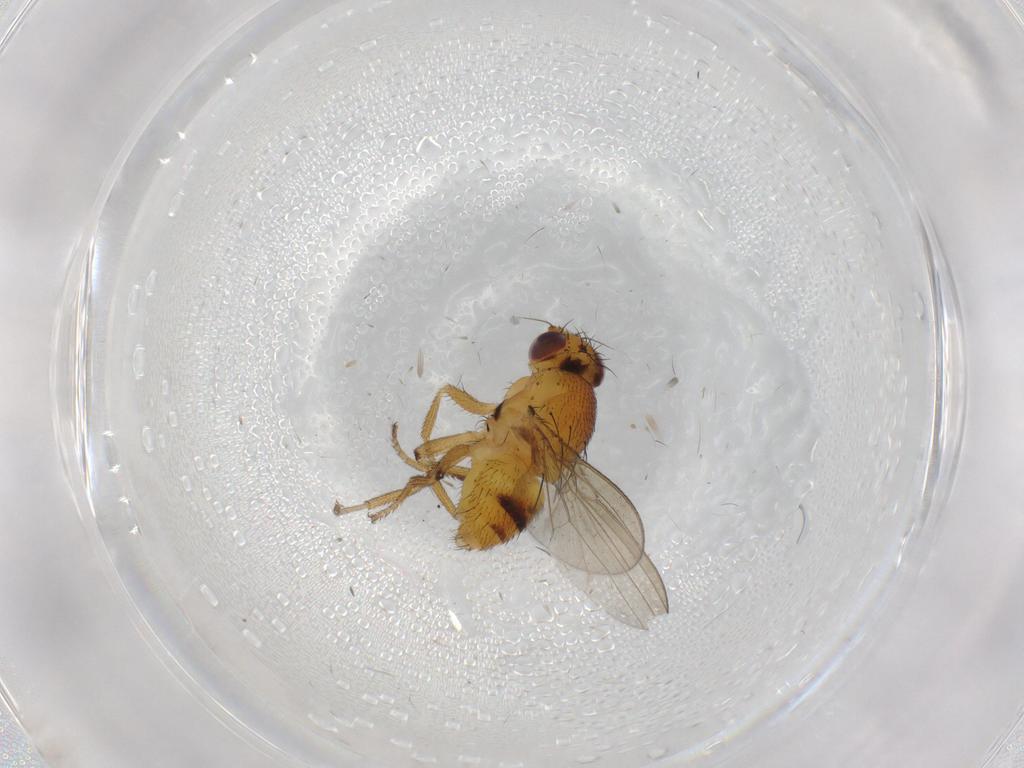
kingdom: Animalia
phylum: Arthropoda
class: Insecta
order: Diptera
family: Milichiidae
